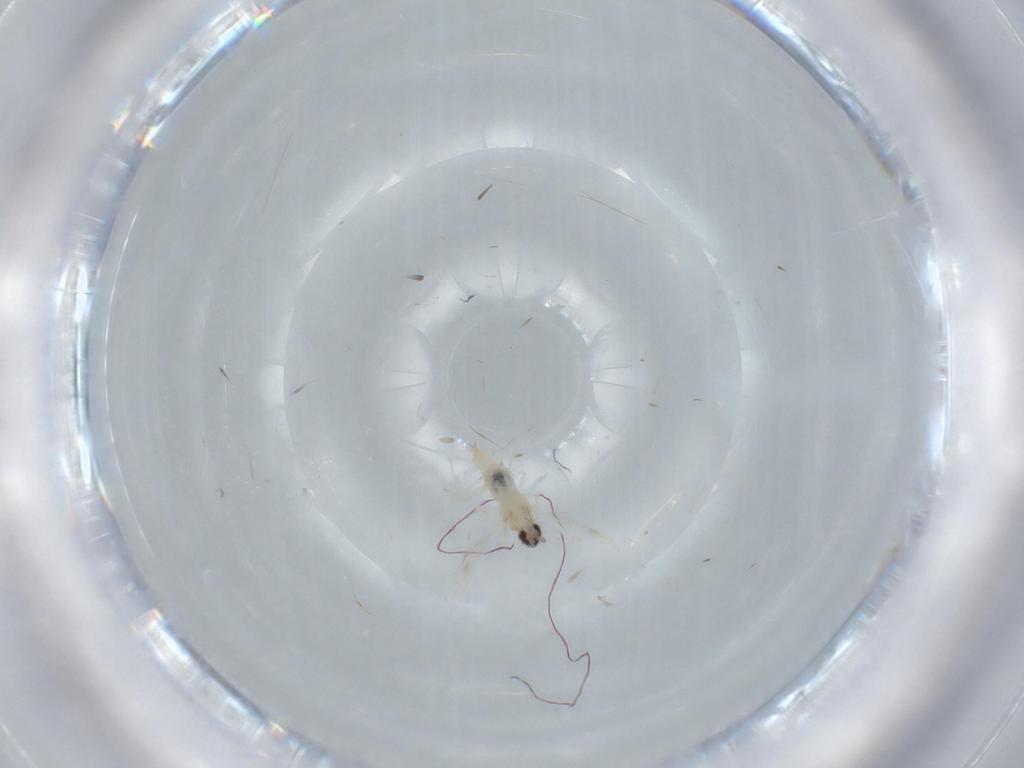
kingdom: Animalia
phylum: Arthropoda
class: Insecta
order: Diptera
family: Cecidomyiidae
